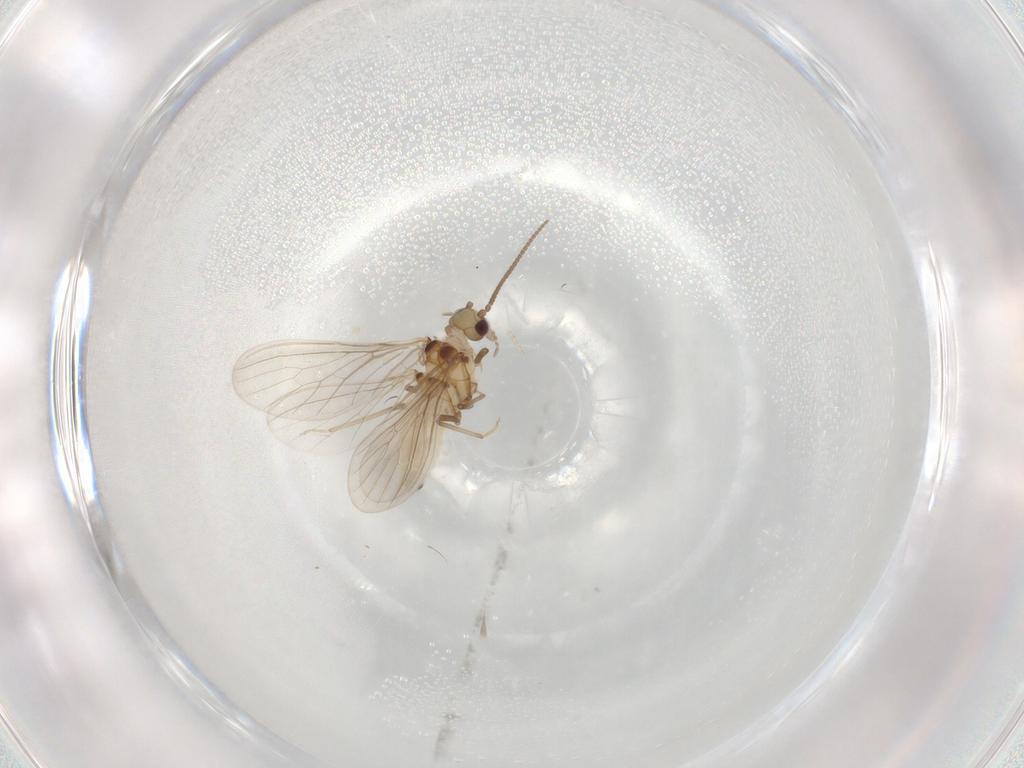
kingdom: Animalia
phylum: Arthropoda
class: Insecta
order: Neuroptera
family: Coniopterygidae
